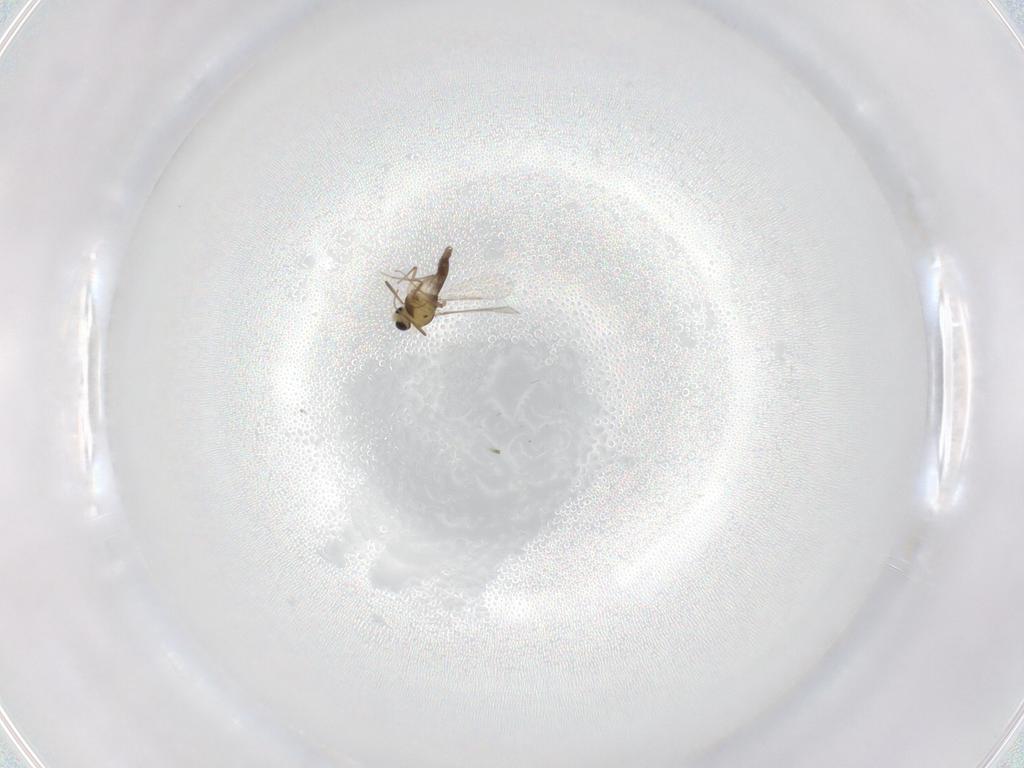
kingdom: Animalia
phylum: Arthropoda
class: Insecta
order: Diptera
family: Chironomidae
